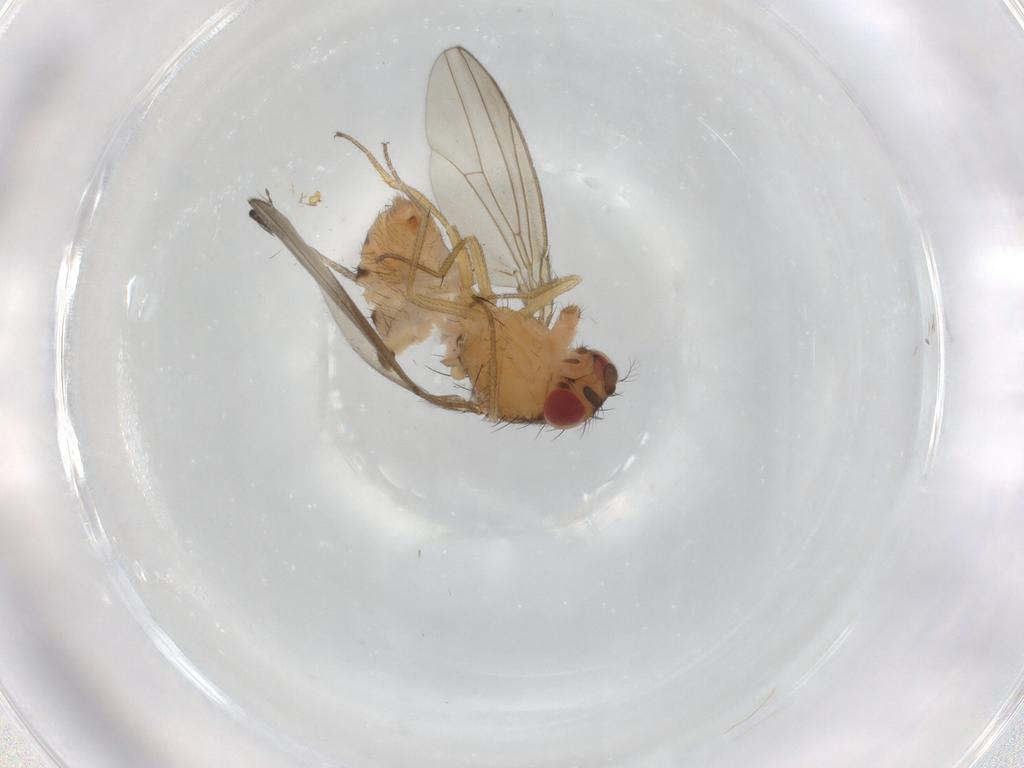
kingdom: Animalia
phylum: Arthropoda
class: Insecta
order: Diptera
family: Drosophilidae
